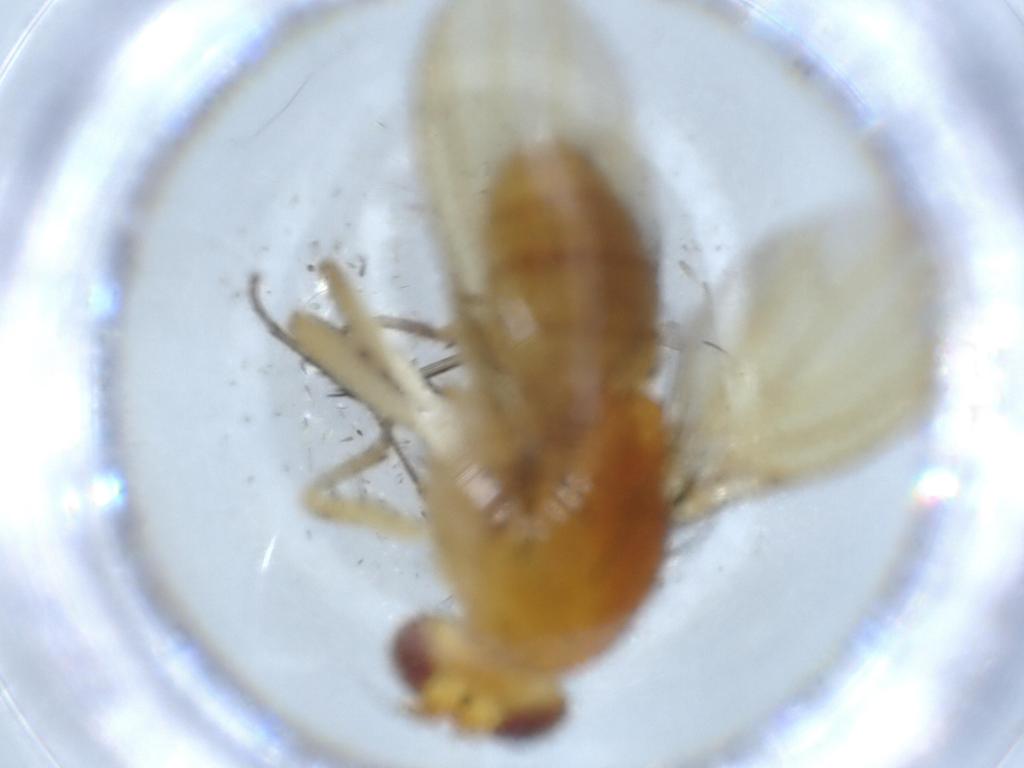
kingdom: Animalia
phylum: Arthropoda
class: Insecta
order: Diptera
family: Cecidomyiidae
